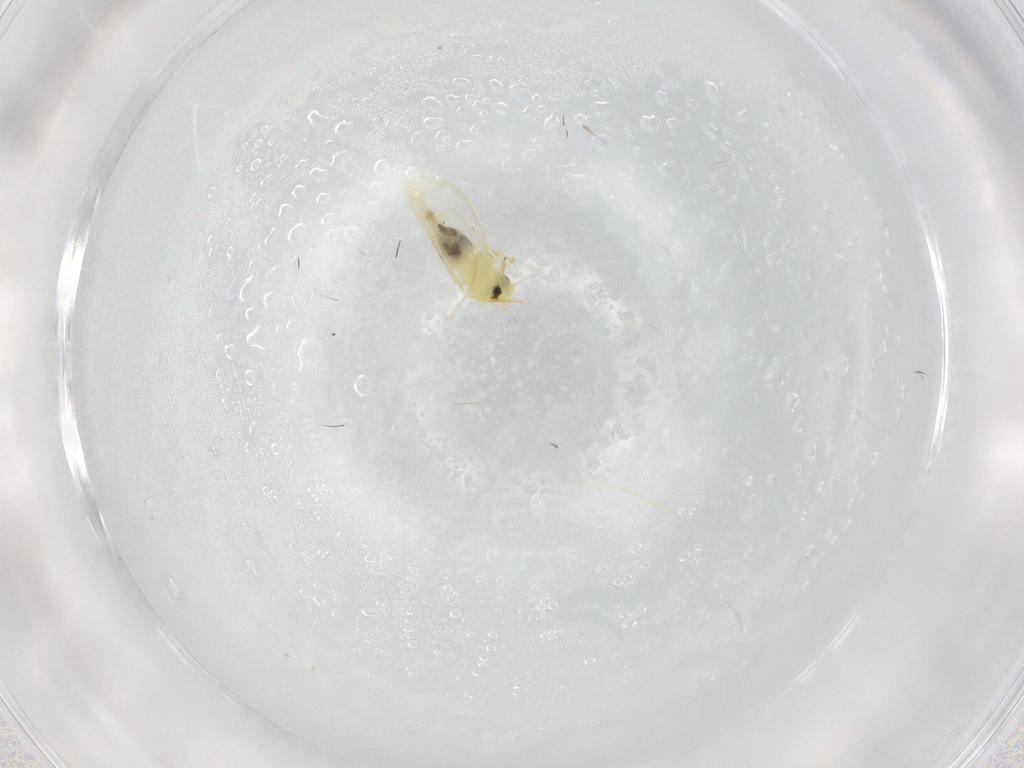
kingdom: Animalia
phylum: Arthropoda
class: Insecta
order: Hemiptera
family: Aleyrodidae
